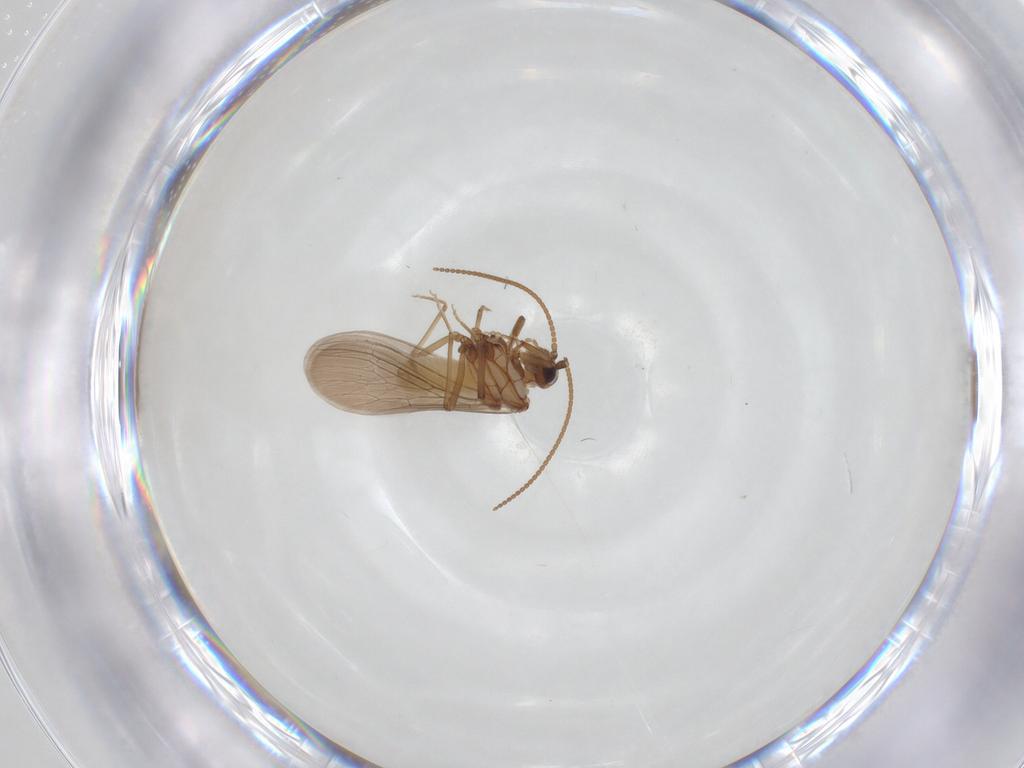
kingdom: Animalia
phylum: Arthropoda
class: Insecta
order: Neuroptera
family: Coniopterygidae
